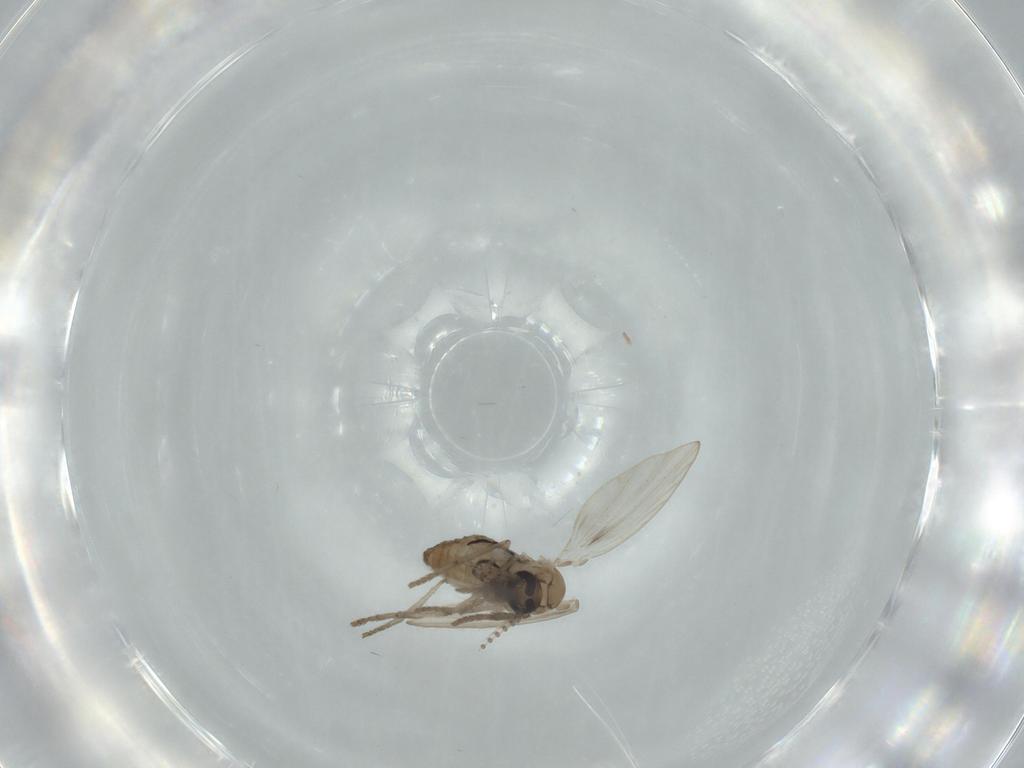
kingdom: Animalia
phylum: Arthropoda
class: Insecta
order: Diptera
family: Psychodidae
